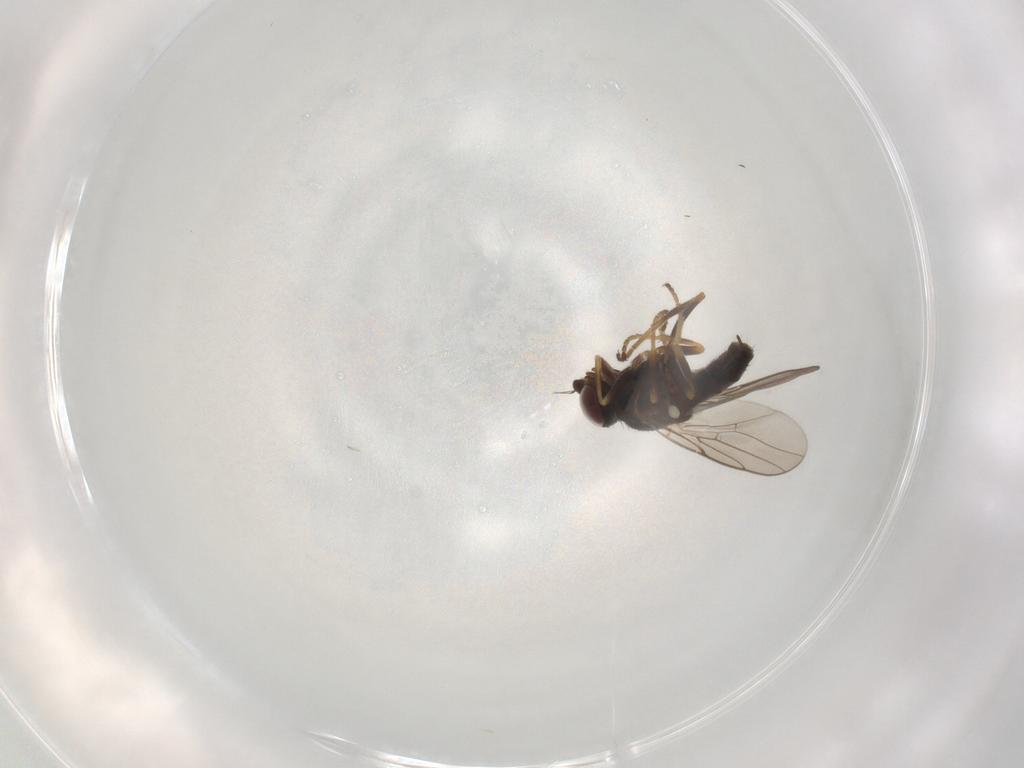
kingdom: Animalia
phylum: Arthropoda
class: Insecta
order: Diptera
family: Chloropidae
